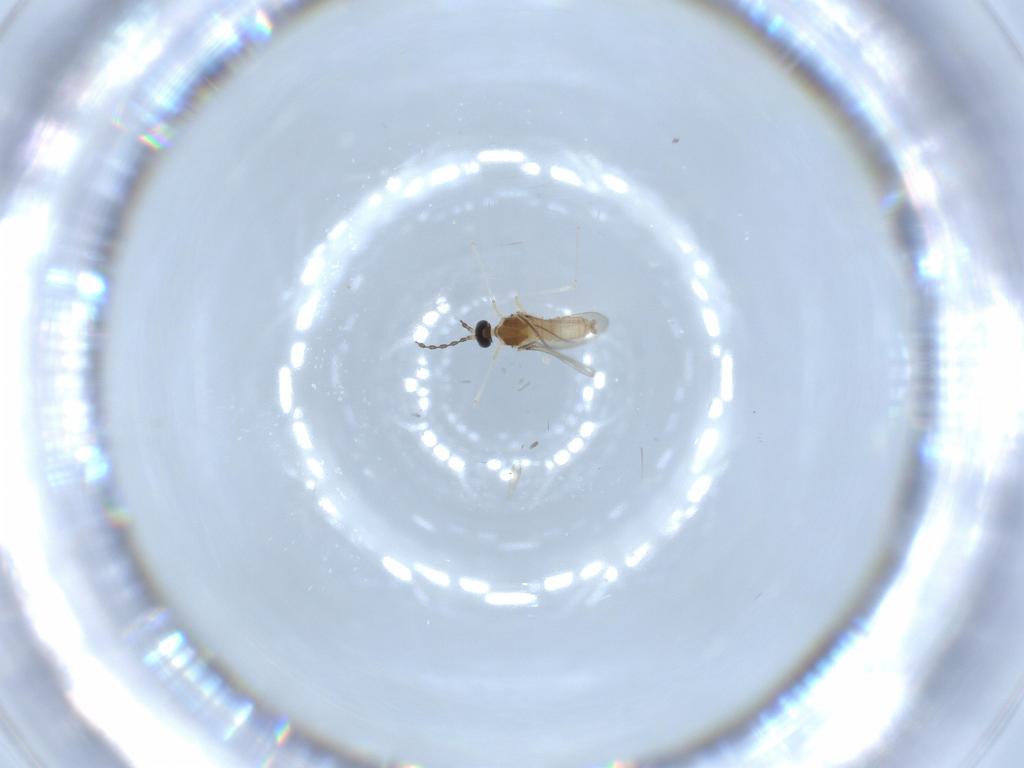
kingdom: Animalia
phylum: Arthropoda
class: Insecta
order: Diptera
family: Cecidomyiidae
